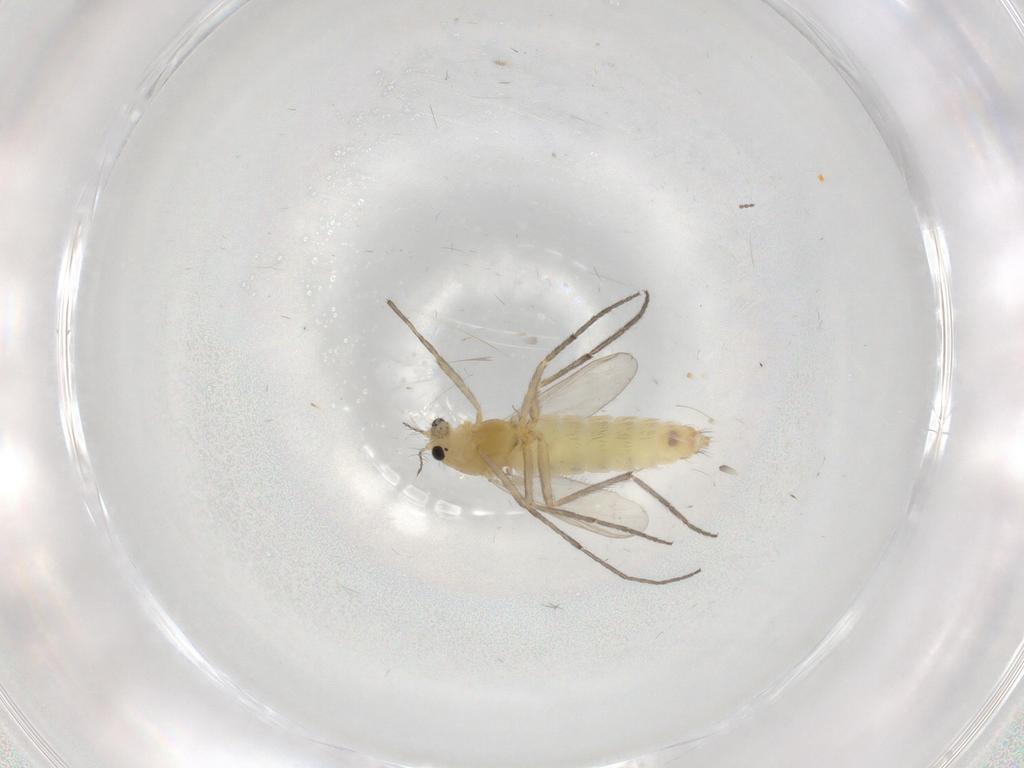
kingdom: Animalia
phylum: Arthropoda
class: Insecta
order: Diptera
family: Chironomidae
